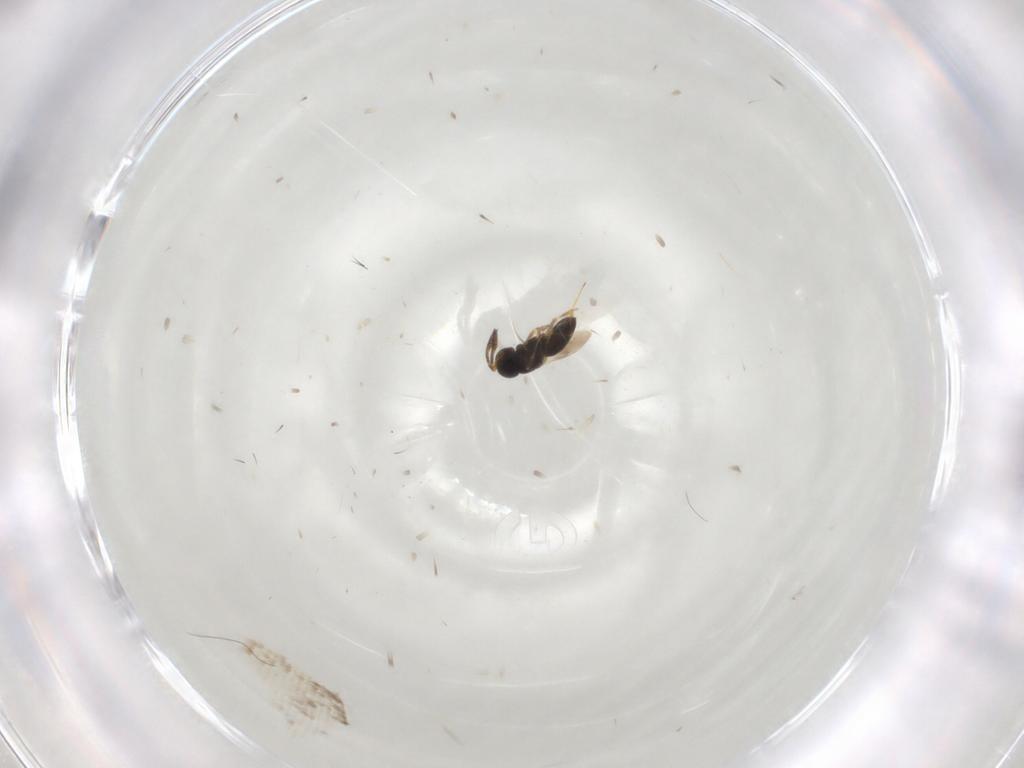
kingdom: Animalia
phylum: Arthropoda
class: Insecta
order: Hymenoptera
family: Scelionidae
